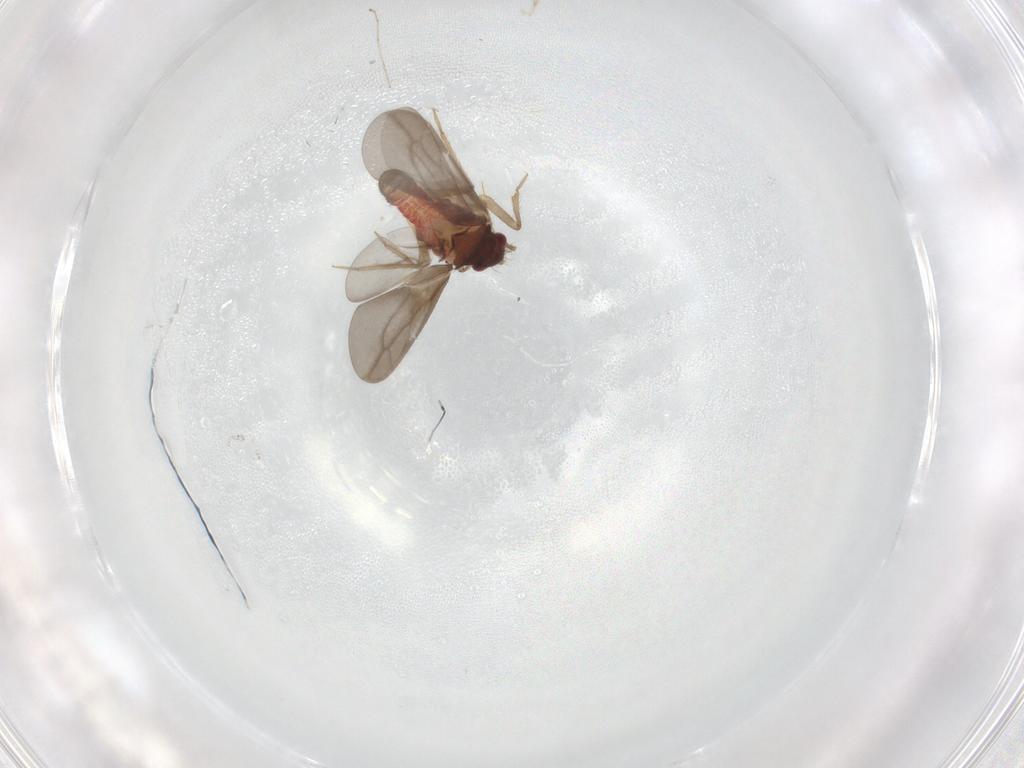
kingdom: Animalia
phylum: Arthropoda
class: Insecta
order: Hemiptera
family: Ceratocombidae
